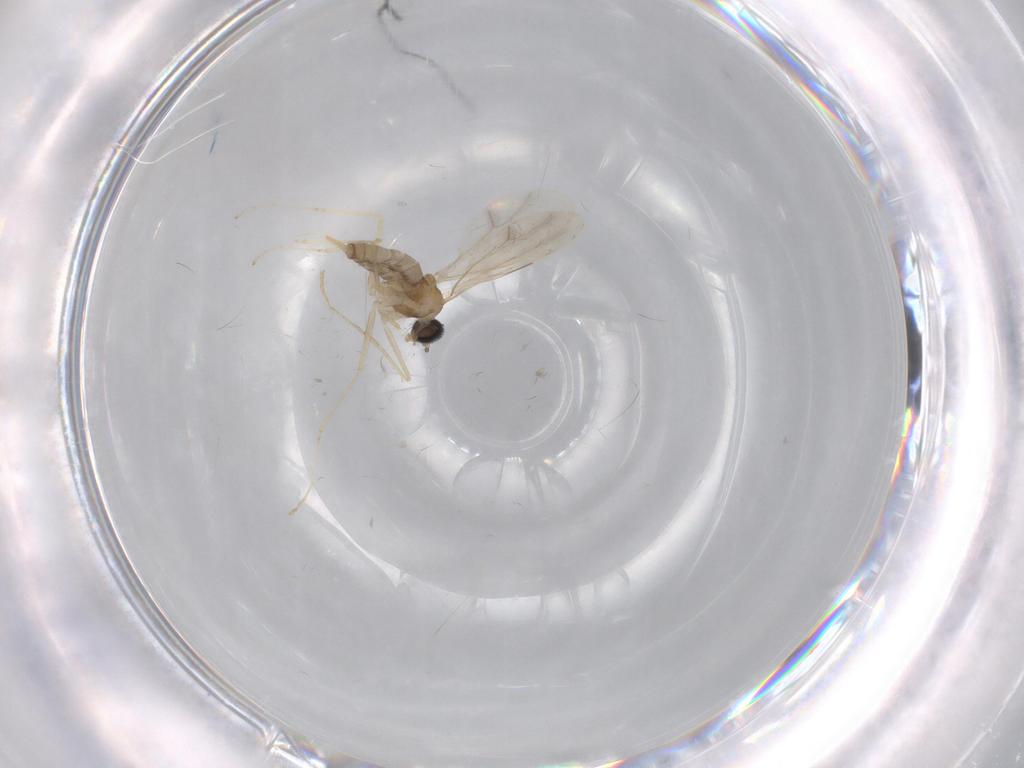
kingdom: Animalia
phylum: Arthropoda
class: Insecta
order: Diptera
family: Cecidomyiidae
